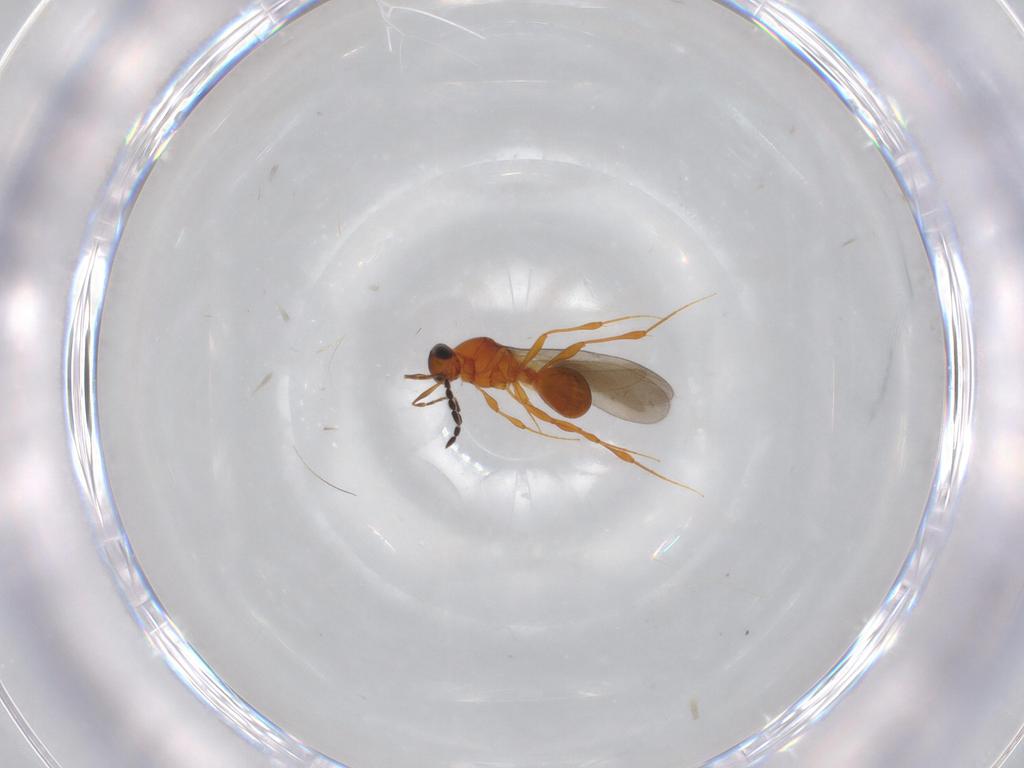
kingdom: Animalia
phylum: Arthropoda
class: Insecta
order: Hymenoptera
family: Platygastridae
